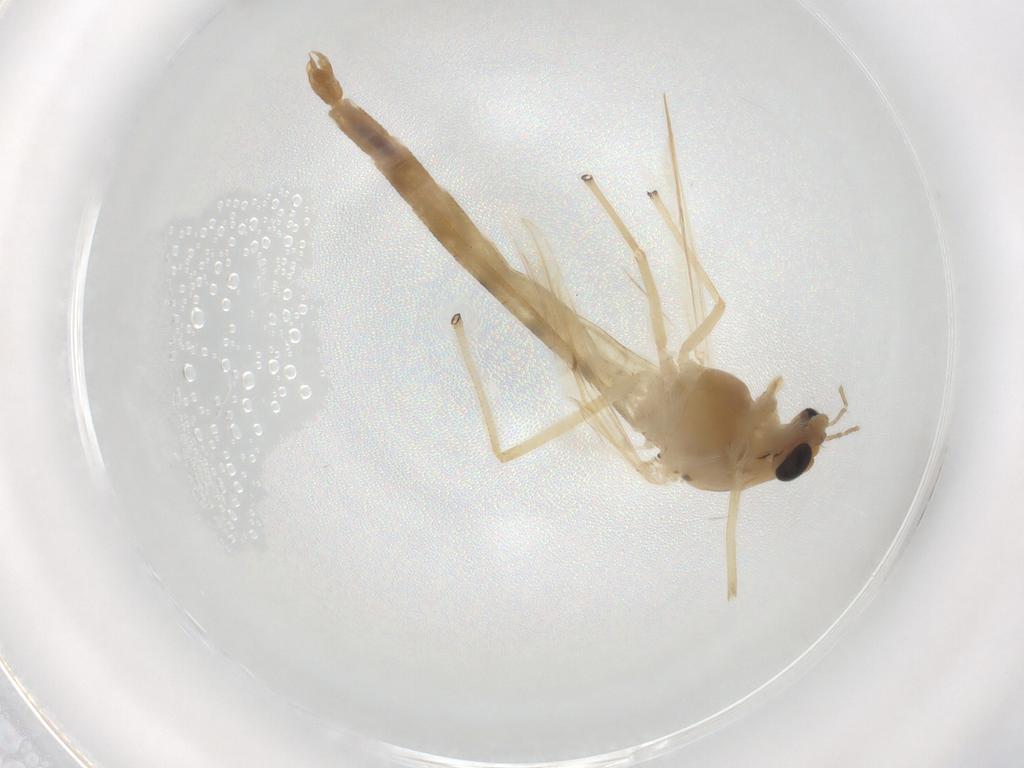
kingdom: Animalia
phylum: Arthropoda
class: Insecta
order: Diptera
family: Chironomidae
